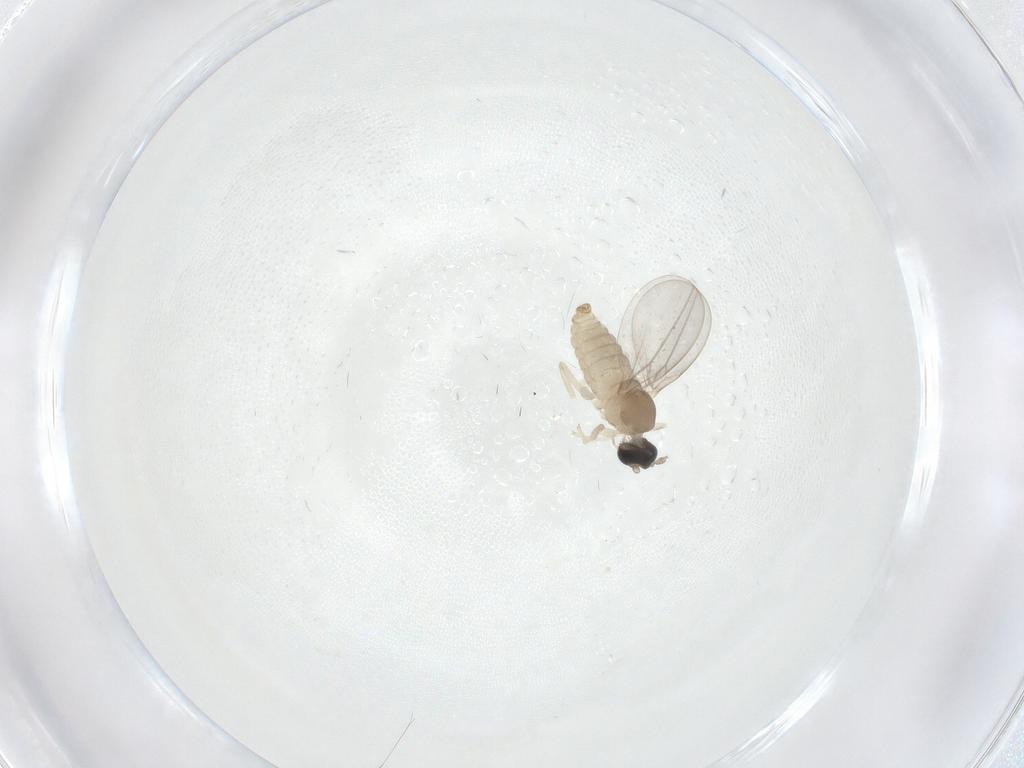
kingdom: Animalia
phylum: Arthropoda
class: Insecta
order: Diptera
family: Cecidomyiidae
